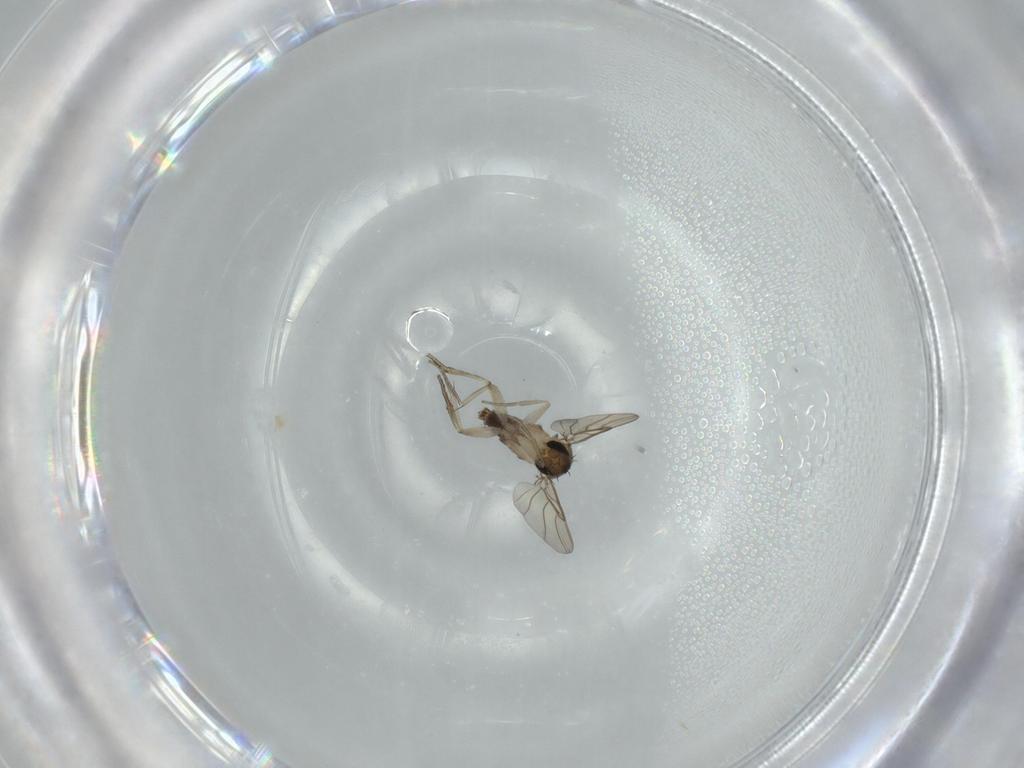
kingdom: Animalia
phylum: Arthropoda
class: Insecta
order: Diptera
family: Phoridae
